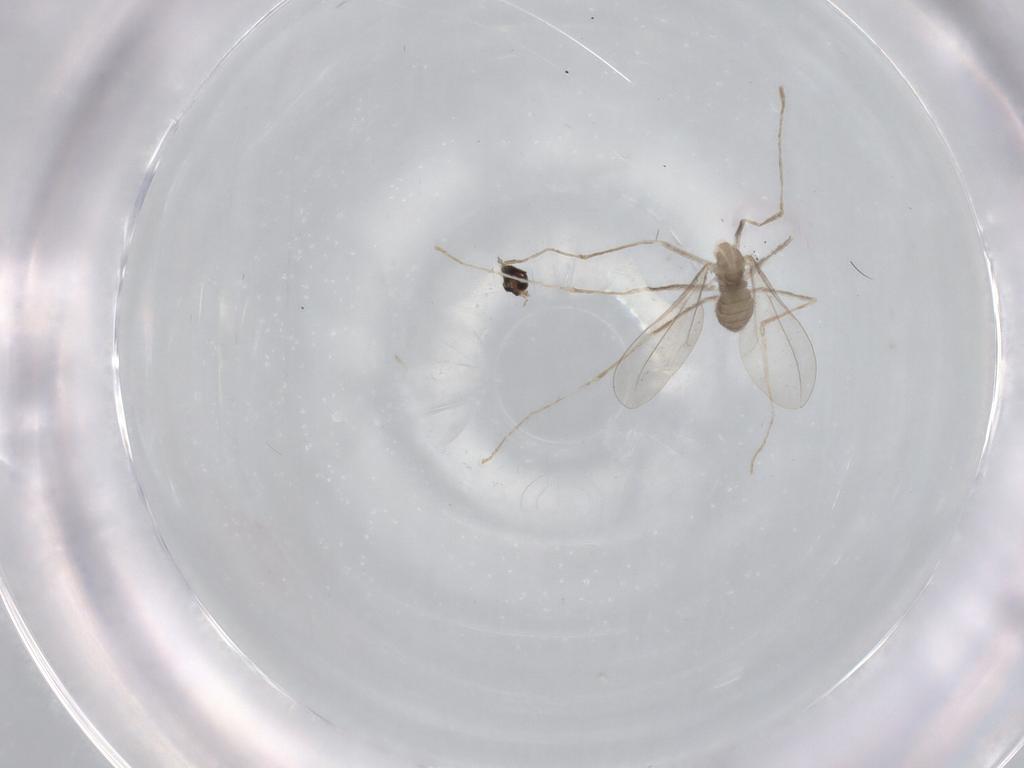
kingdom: Animalia
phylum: Arthropoda
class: Insecta
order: Diptera
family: Cecidomyiidae
